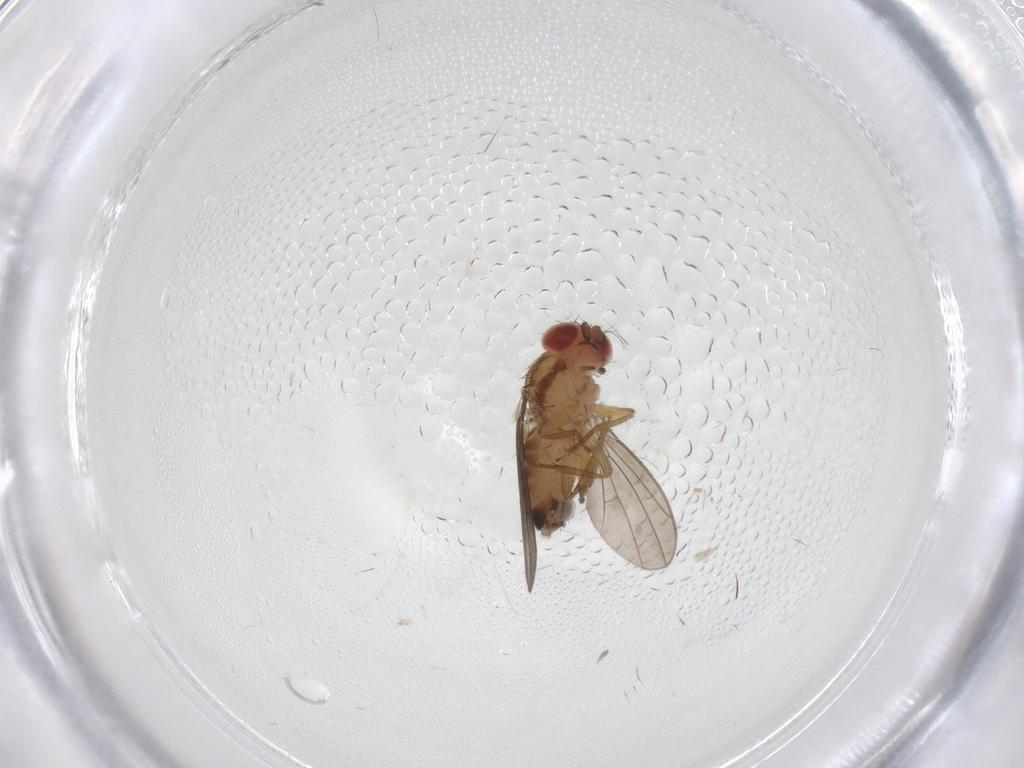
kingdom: Animalia
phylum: Arthropoda
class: Insecta
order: Diptera
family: Drosophilidae
